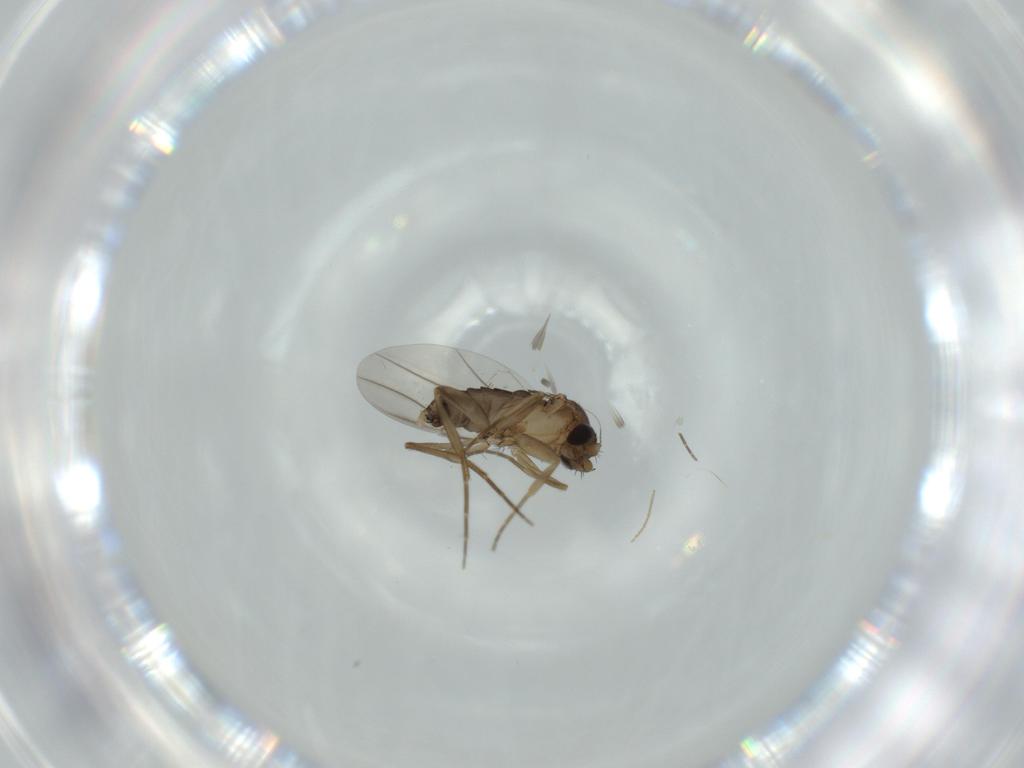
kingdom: Animalia
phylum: Arthropoda
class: Insecta
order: Diptera
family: Phoridae
